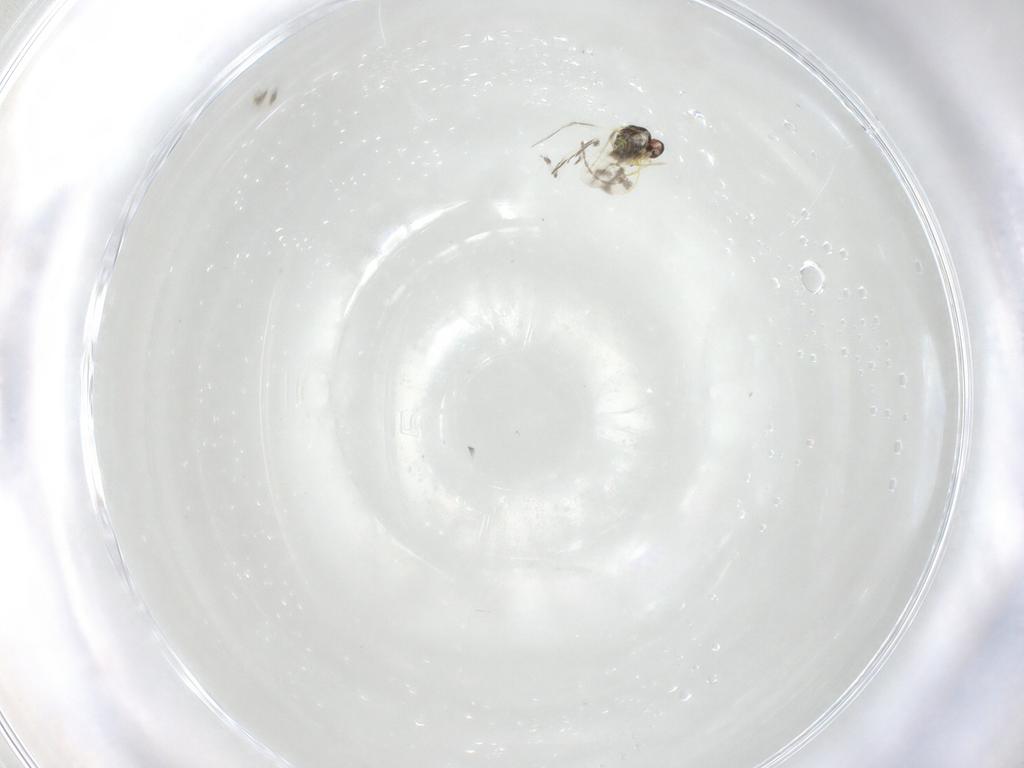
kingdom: Animalia
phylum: Arthropoda
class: Insecta
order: Hemiptera
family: Aleyrodidae
